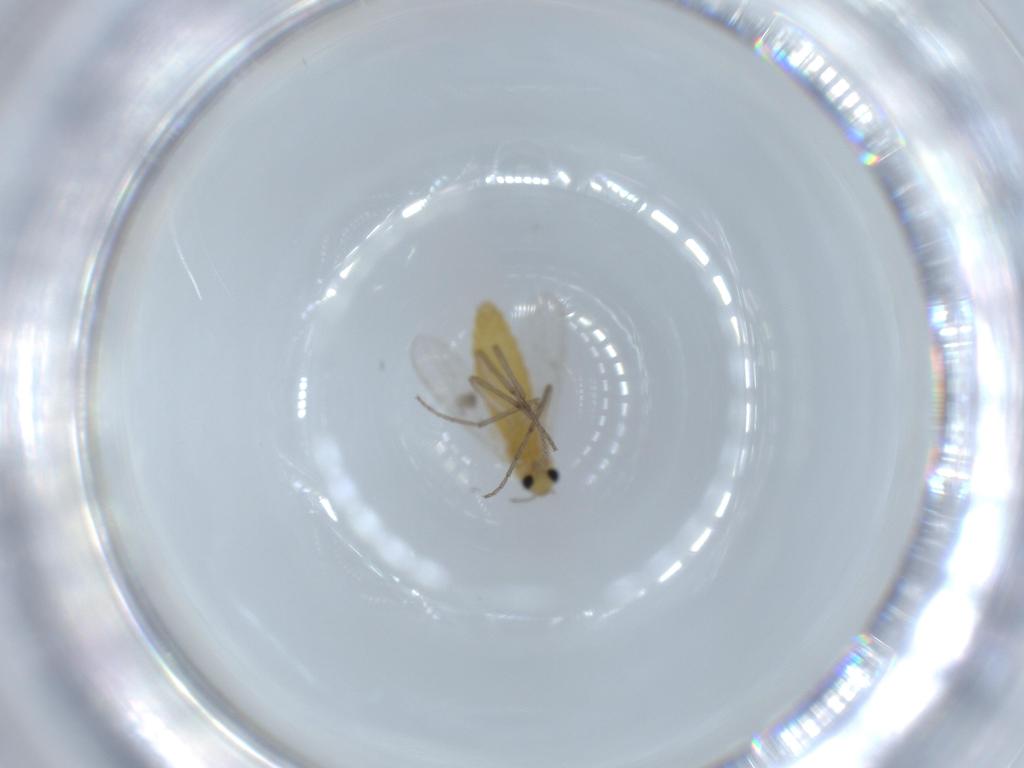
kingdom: Animalia
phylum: Arthropoda
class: Insecta
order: Diptera
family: Chironomidae
